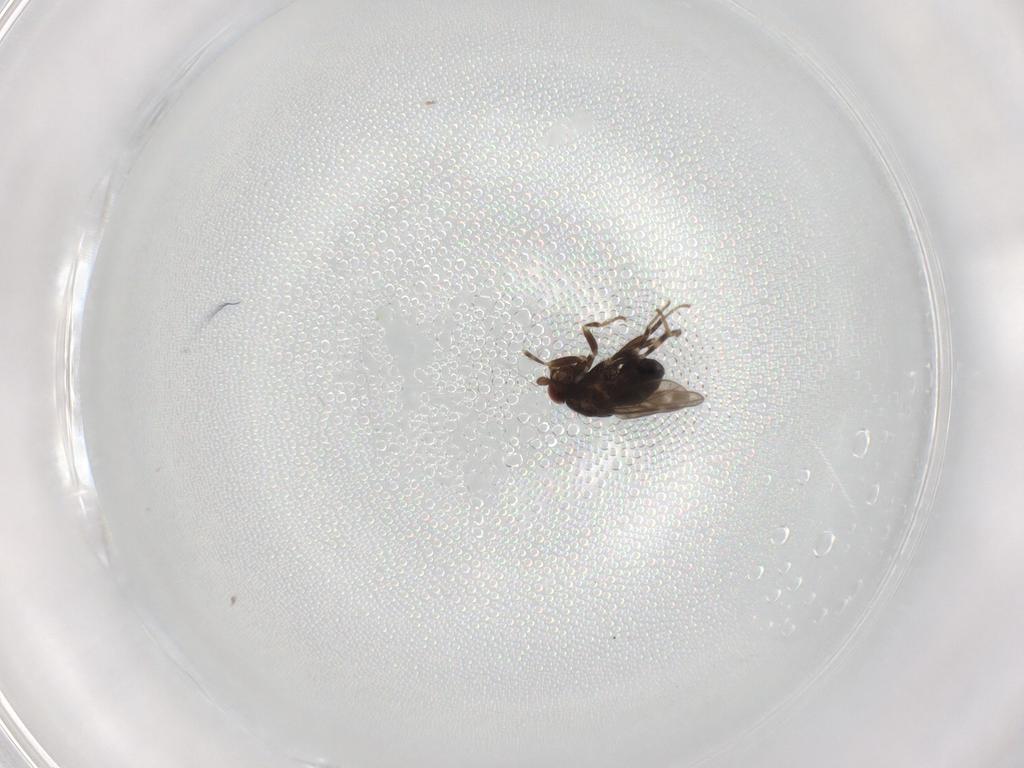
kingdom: Animalia
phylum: Arthropoda
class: Insecta
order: Diptera
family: Sphaeroceridae
